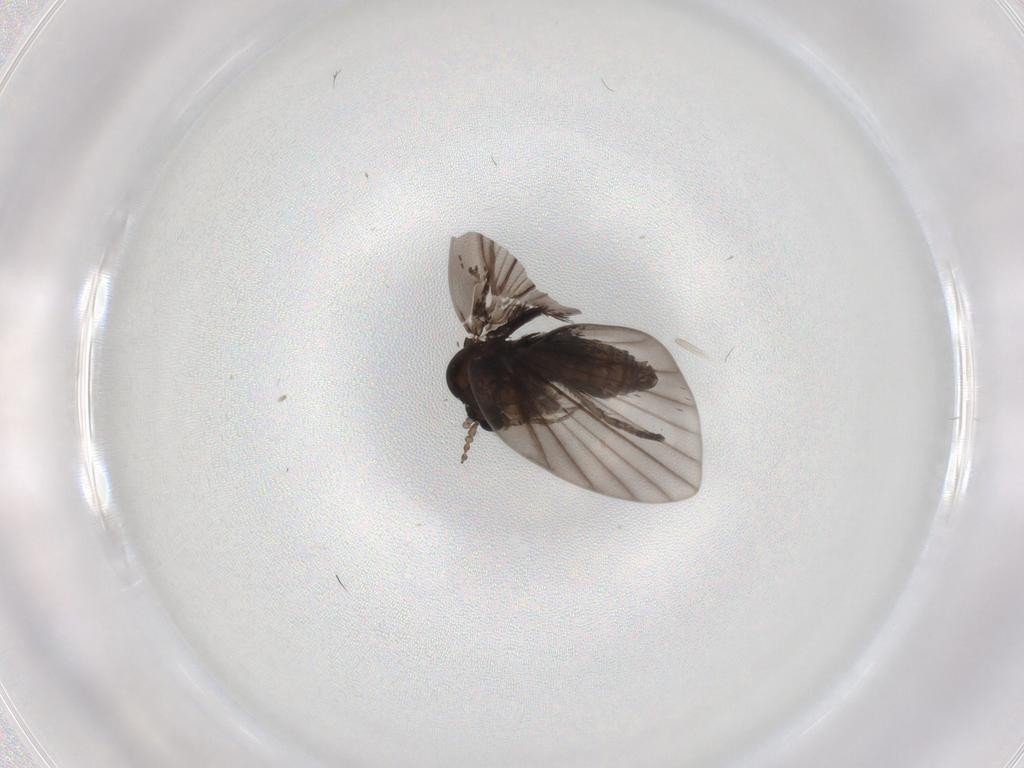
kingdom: Animalia
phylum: Arthropoda
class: Insecta
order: Diptera
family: Psychodidae
